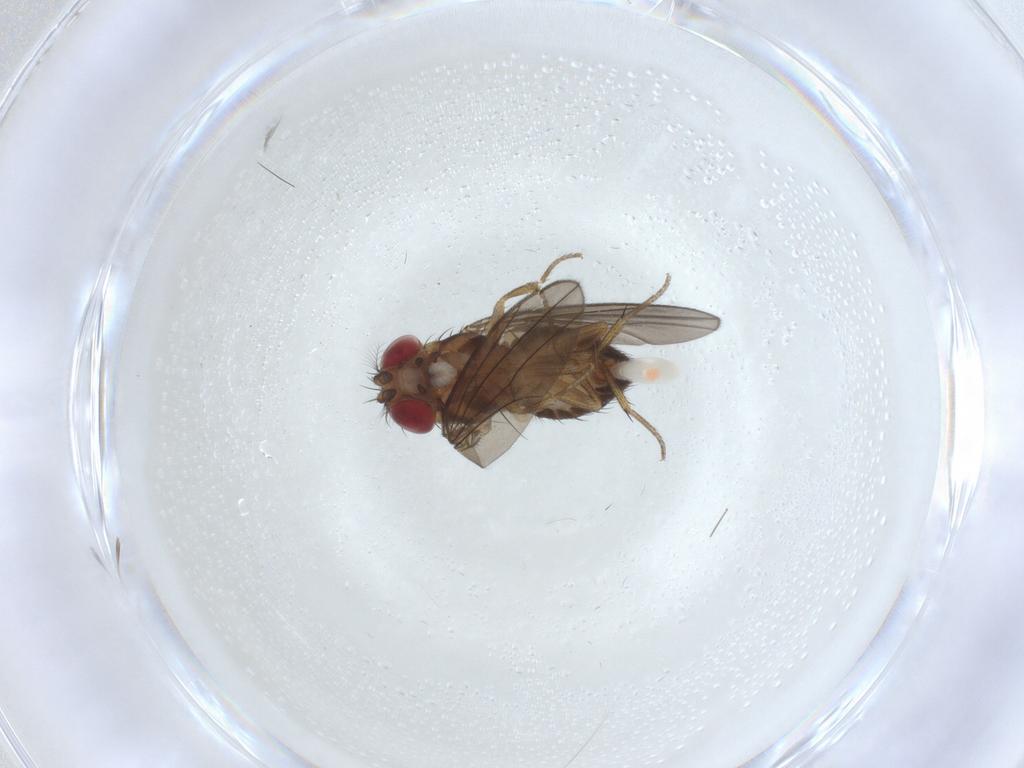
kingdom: Animalia
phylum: Arthropoda
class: Insecta
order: Diptera
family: Drosophilidae
